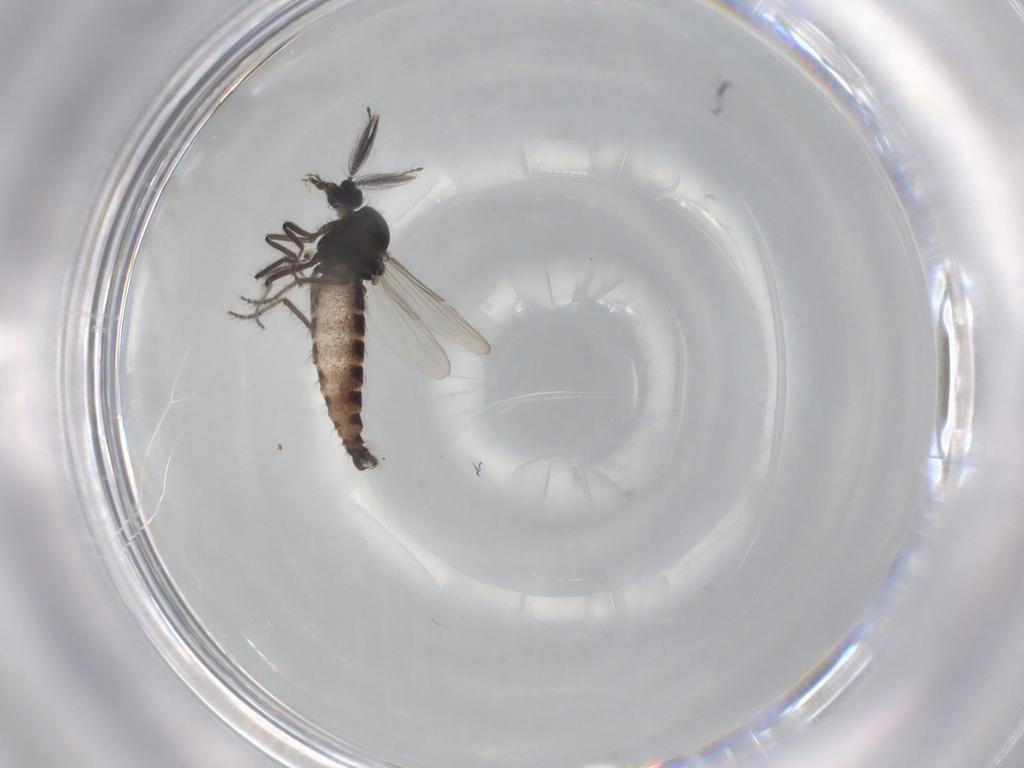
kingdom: Animalia
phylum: Arthropoda
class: Insecta
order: Diptera
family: Ceratopogonidae
